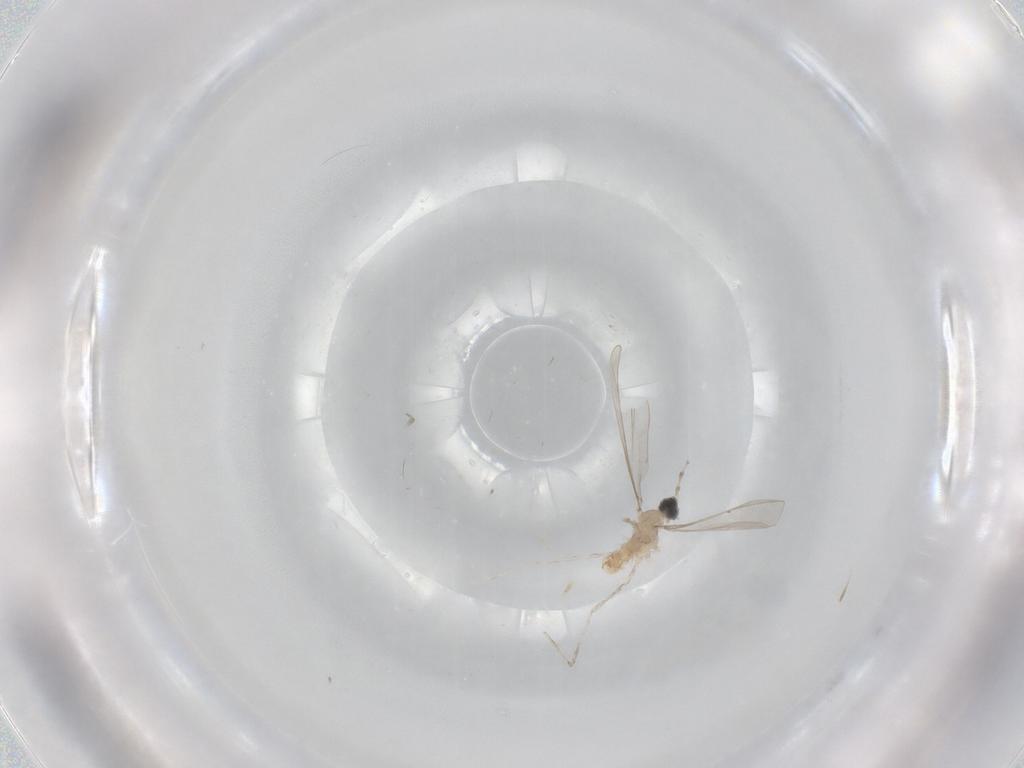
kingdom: Animalia
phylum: Arthropoda
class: Insecta
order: Diptera
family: Cecidomyiidae
